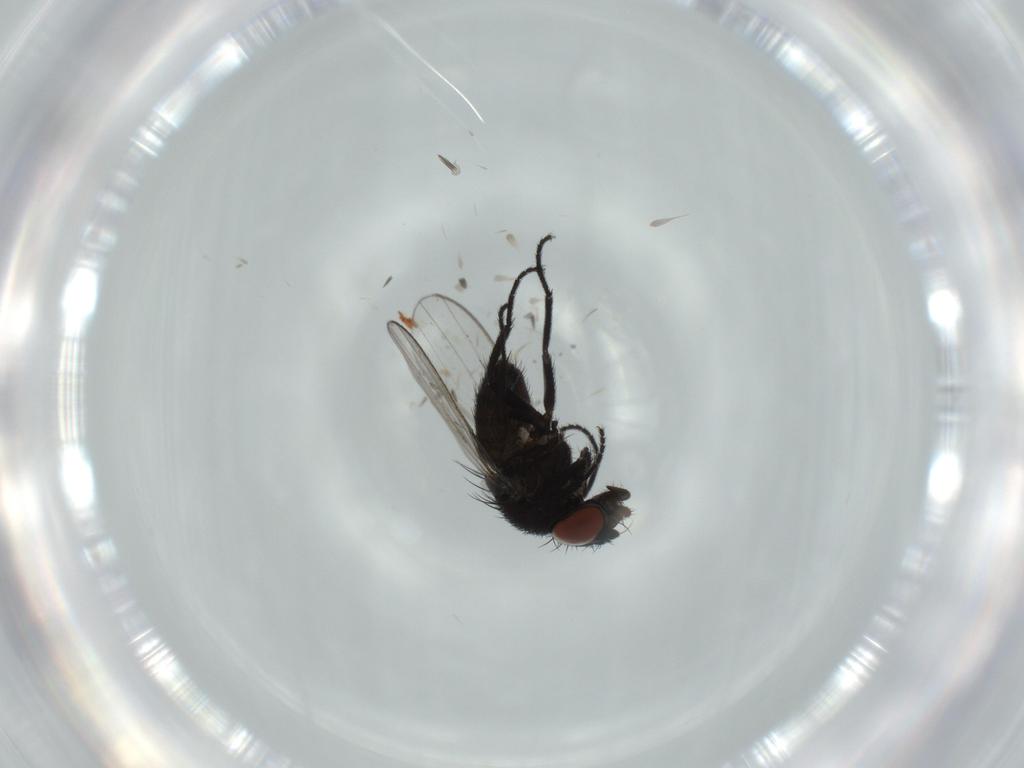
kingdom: Animalia
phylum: Arthropoda
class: Insecta
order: Diptera
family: Milichiidae
